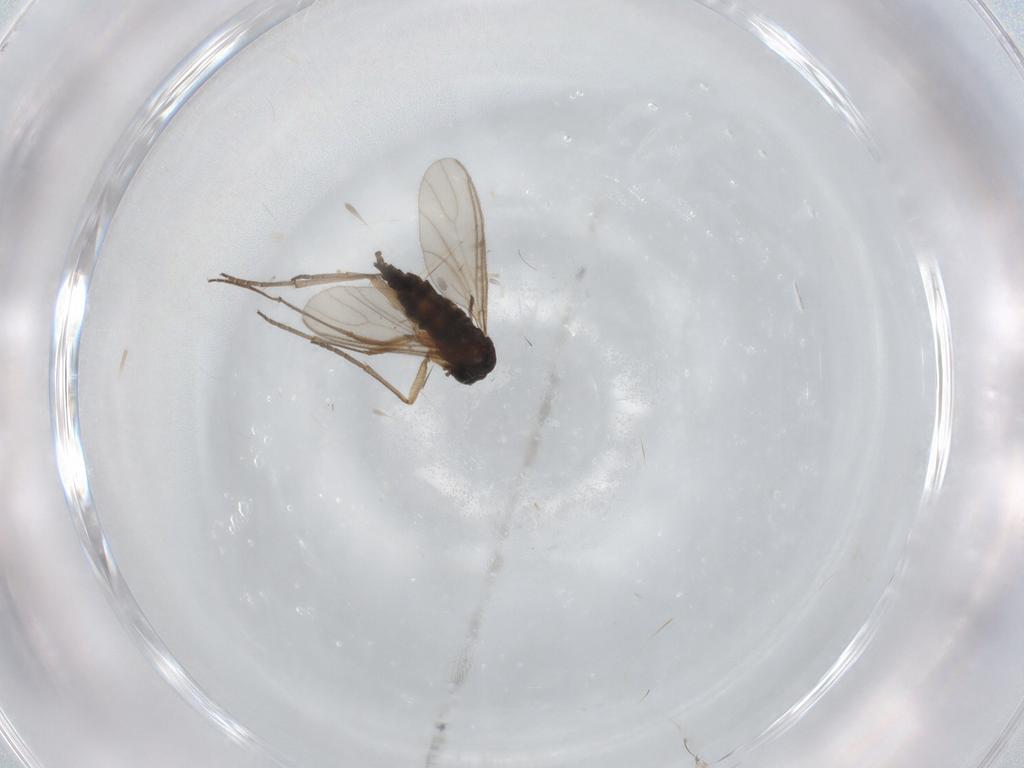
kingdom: Animalia
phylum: Arthropoda
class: Insecta
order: Diptera
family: Sciaridae
